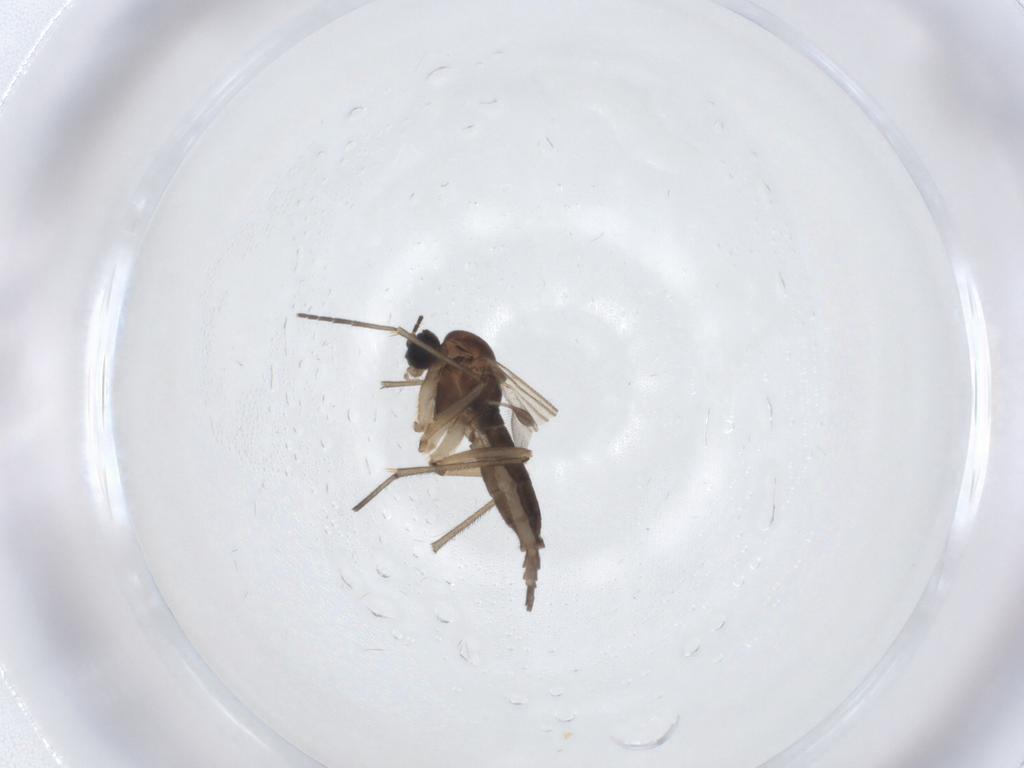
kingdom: Animalia
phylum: Arthropoda
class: Insecta
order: Diptera
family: Sciaridae
